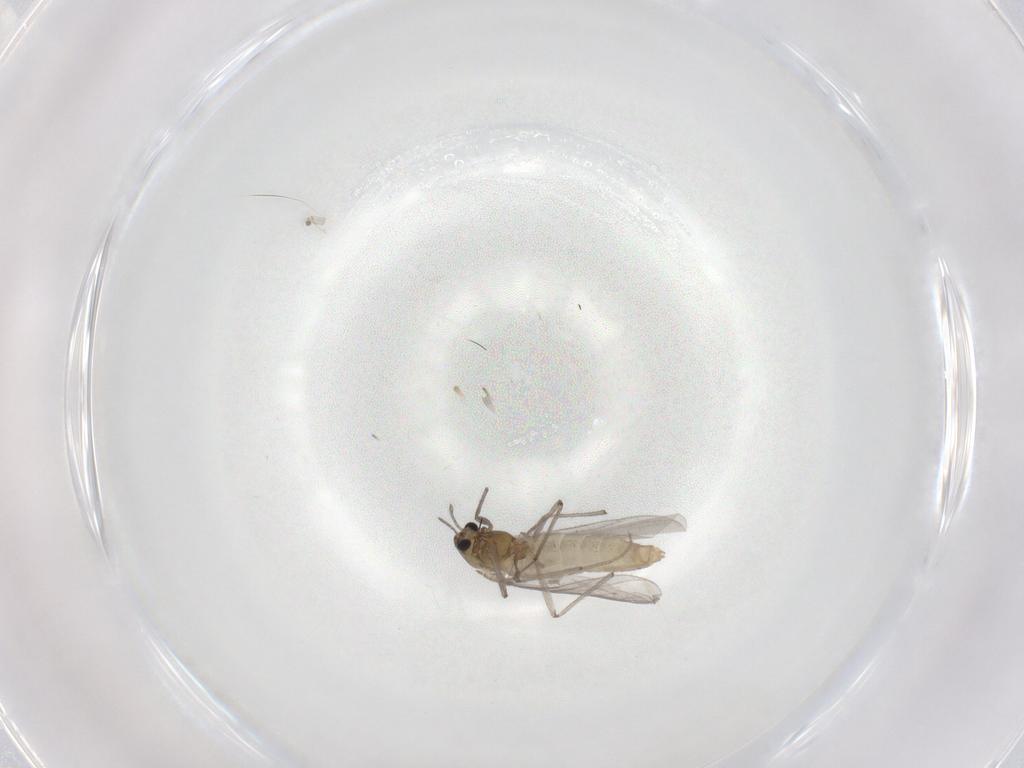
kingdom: Animalia
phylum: Arthropoda
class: Insecta
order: Diptera
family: Chironomidae
